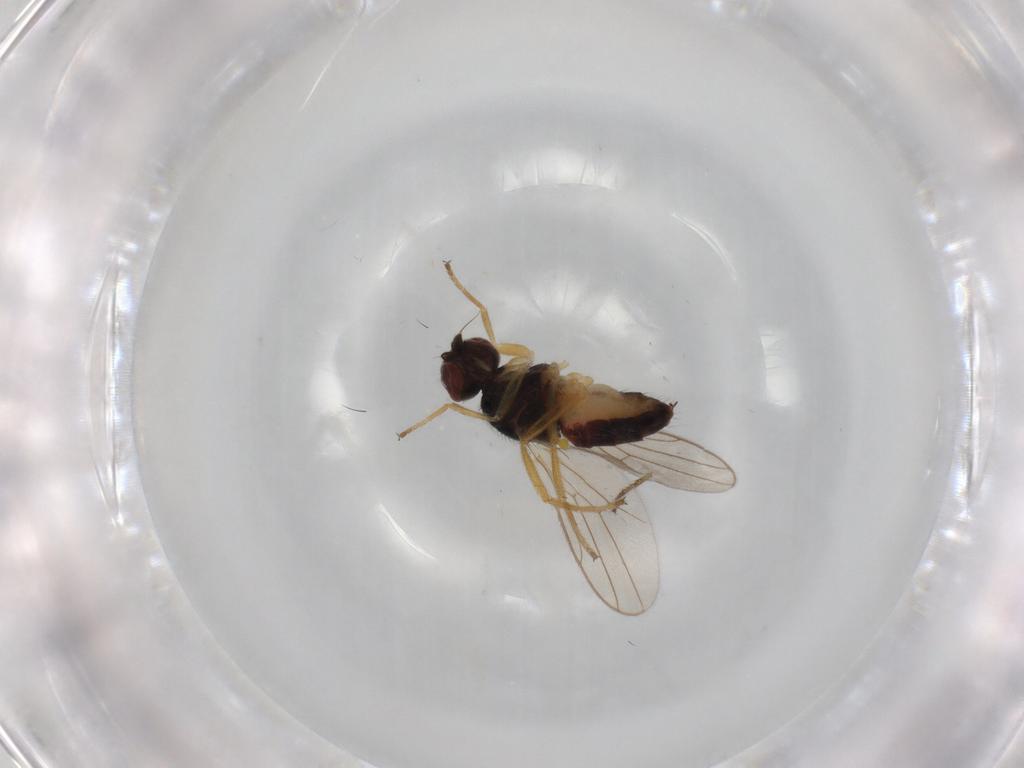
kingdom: Animalia
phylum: Arthropoda
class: Insecta
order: Diptera
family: Chloropidae
